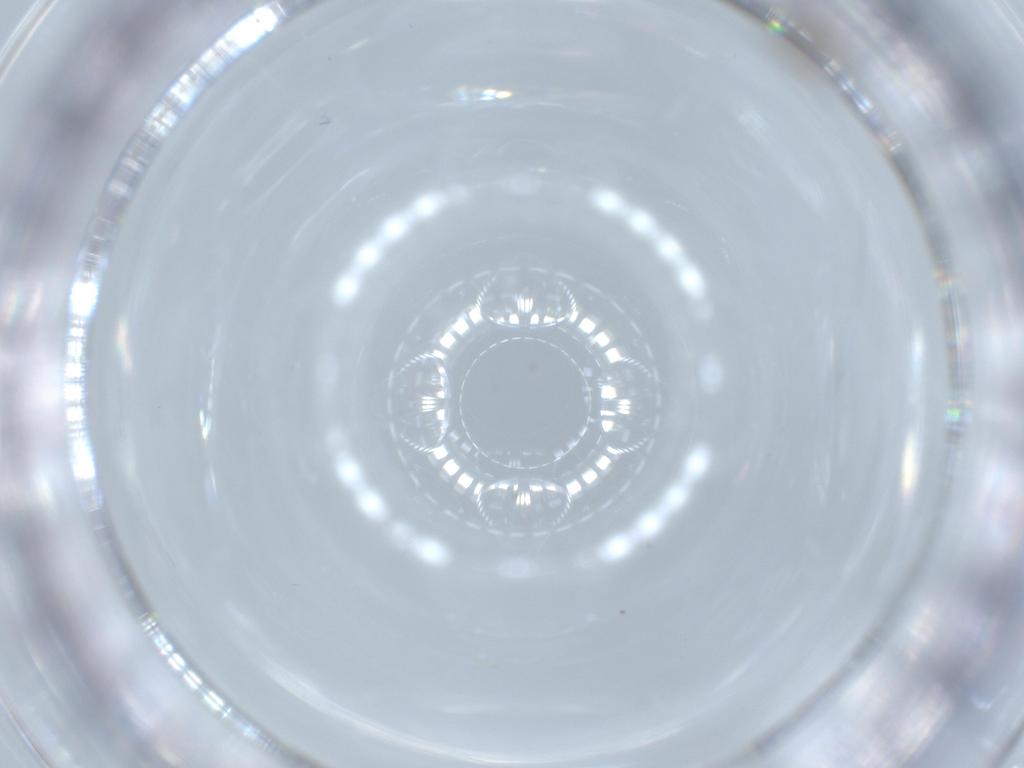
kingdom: Animalia
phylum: Arthropoda
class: Insecta
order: Diptera
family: Cecidomyiidae
